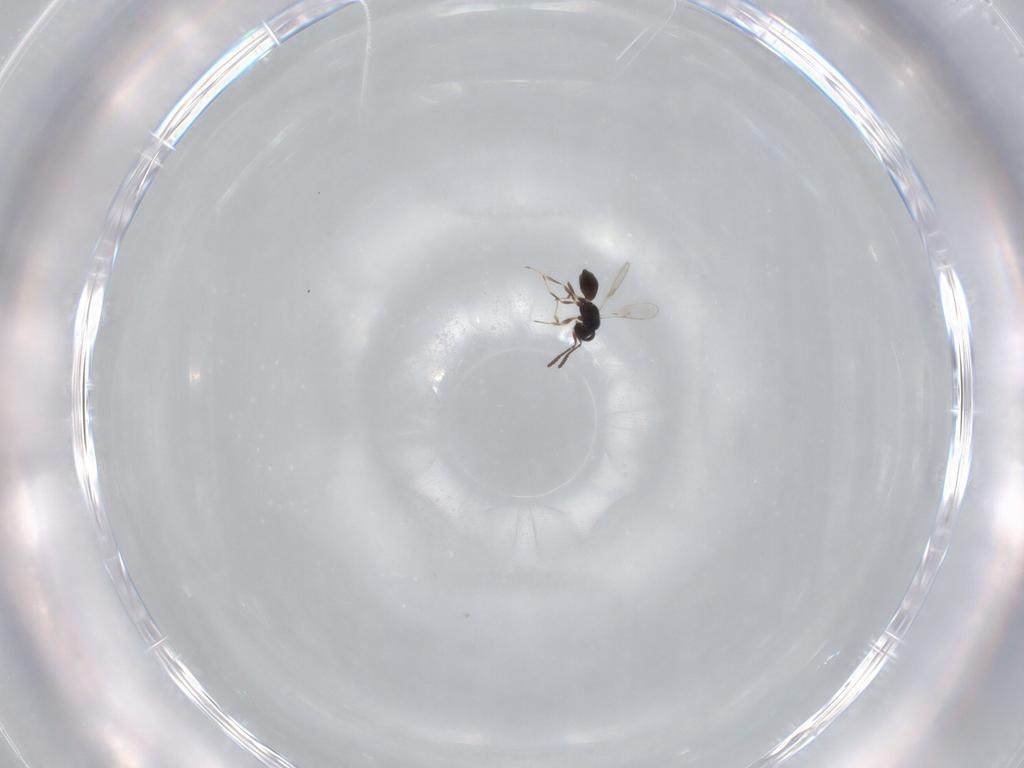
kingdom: Animalia
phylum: Arthropoda
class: Insecta
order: Hymenoptera
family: Scelionidae
